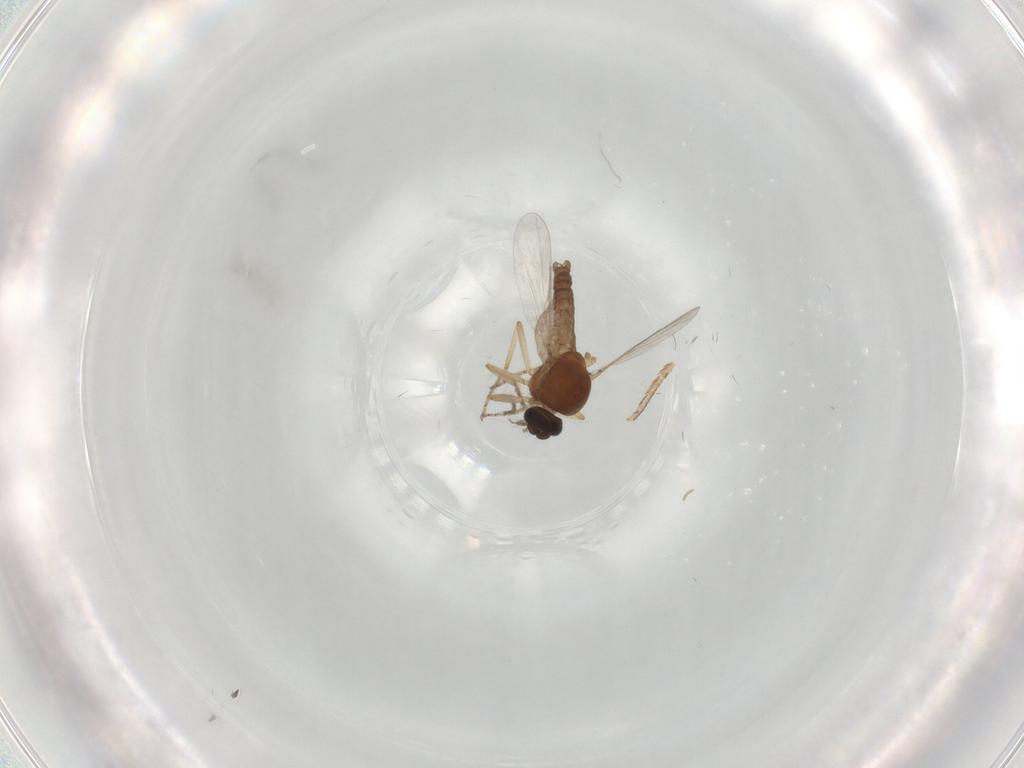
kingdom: Animalia
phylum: Arthropoda
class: Insecta
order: Diptera
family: Ceratopogonidae
